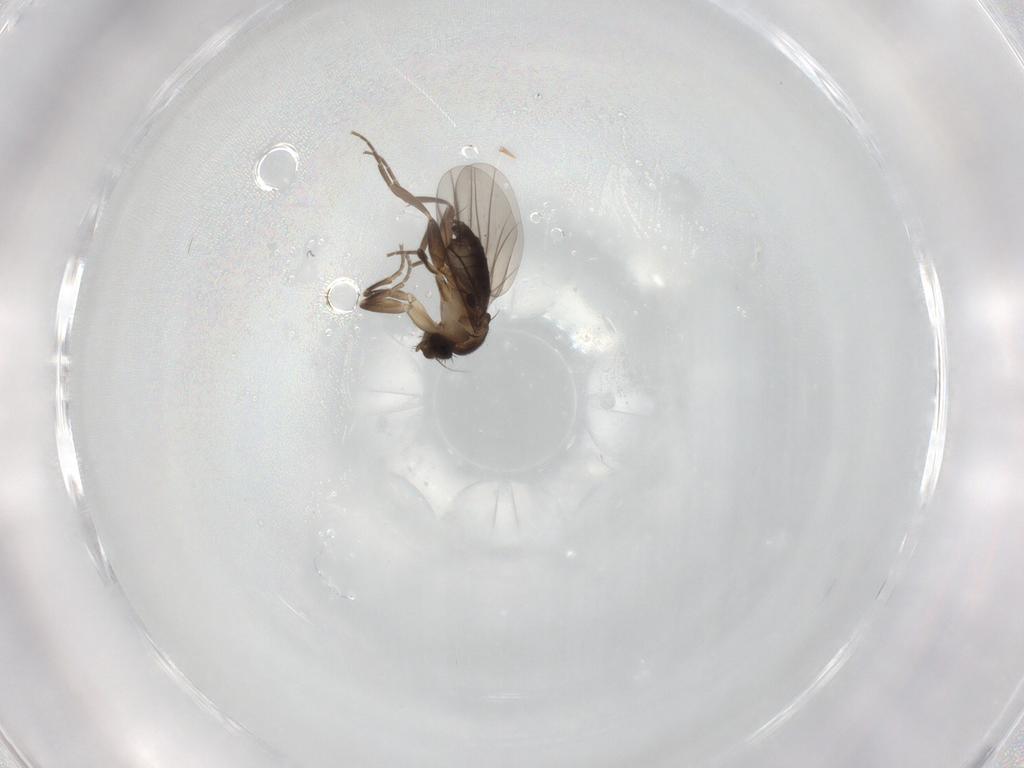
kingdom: Animalia
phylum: Arthropoda
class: Insecta
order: Diptera
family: Phoridae
